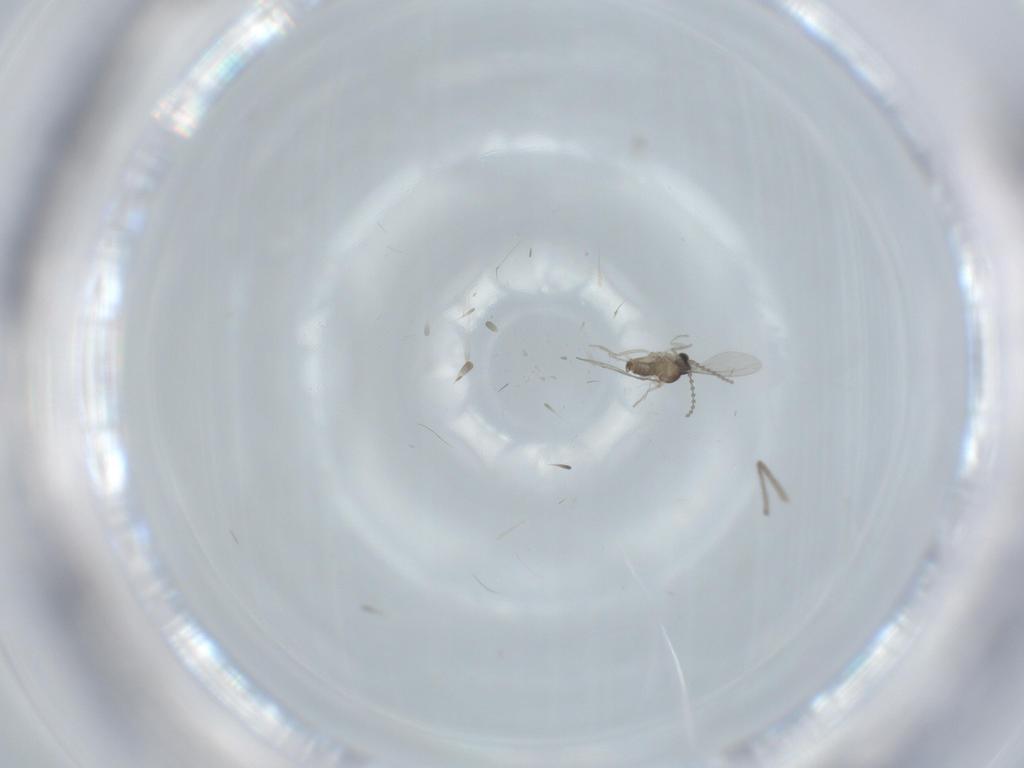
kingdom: Animalia
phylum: Arthropoda
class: Insecta
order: Diptera
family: Cecidomyiidae
